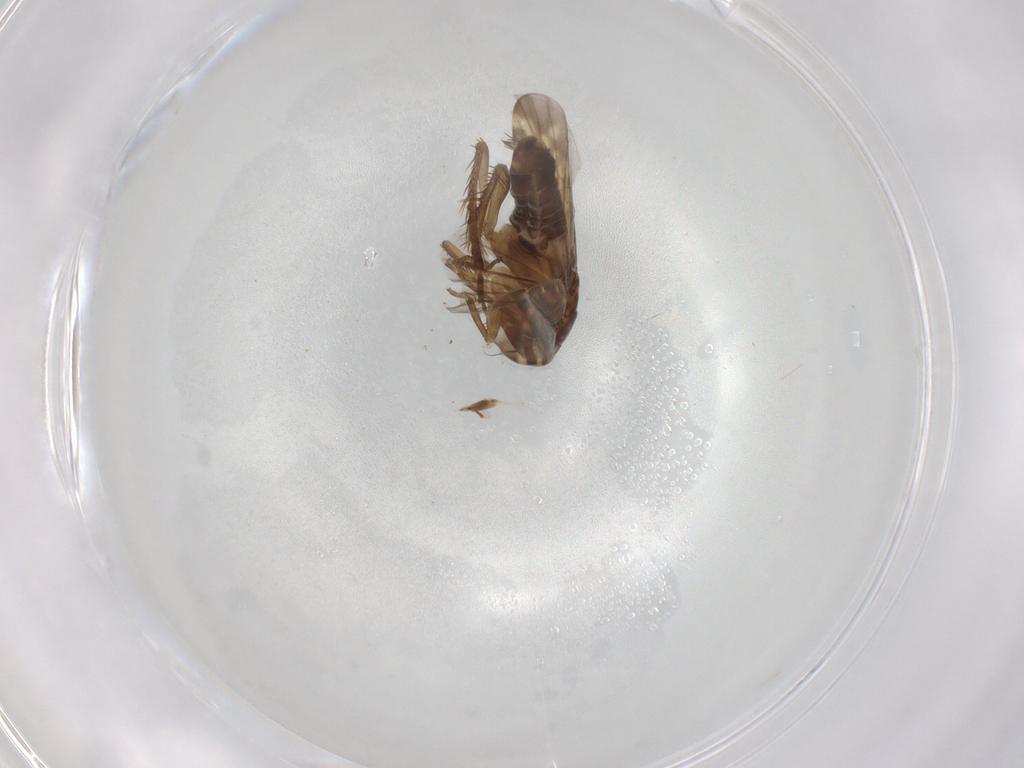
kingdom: Animalia
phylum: Arthropoda
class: Insecta
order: Hemiptera
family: Cicadellidae
